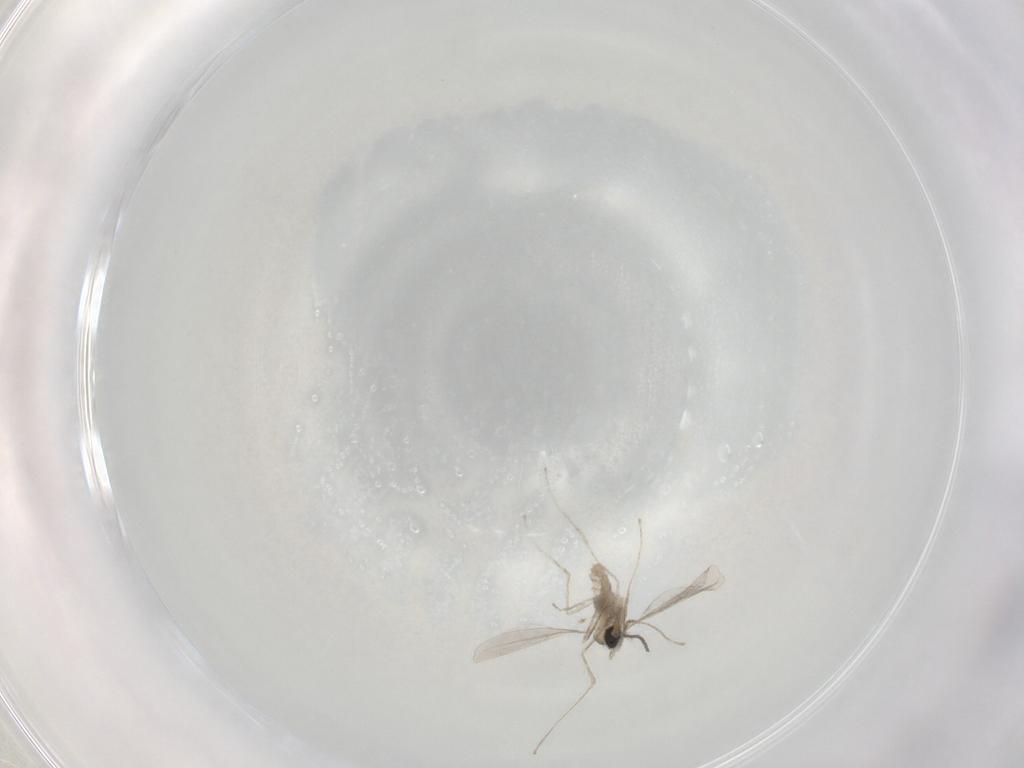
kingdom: Animalia
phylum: Arthropoda
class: Insecta
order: Diptera
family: Cecidomyiidae
